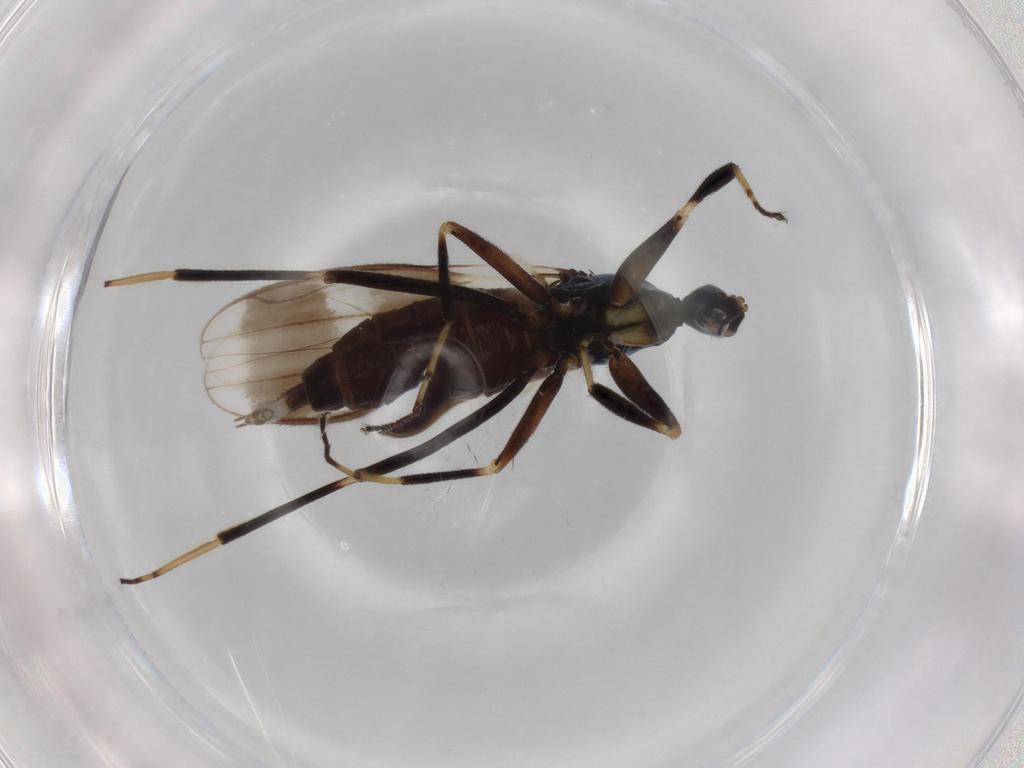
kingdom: Animalia
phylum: Arthropoda
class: Insecta
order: Diptera
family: Hybotidae
